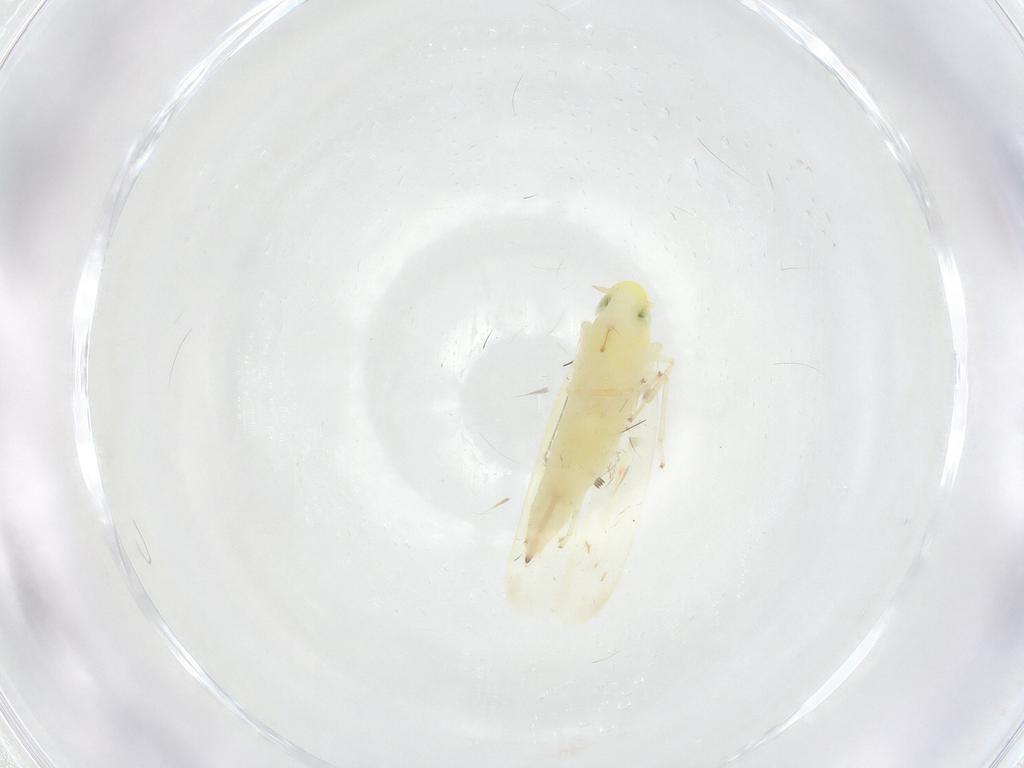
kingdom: Animalia
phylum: Arthropoda
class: Insecta
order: Hemiptera
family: Cicadellidae
